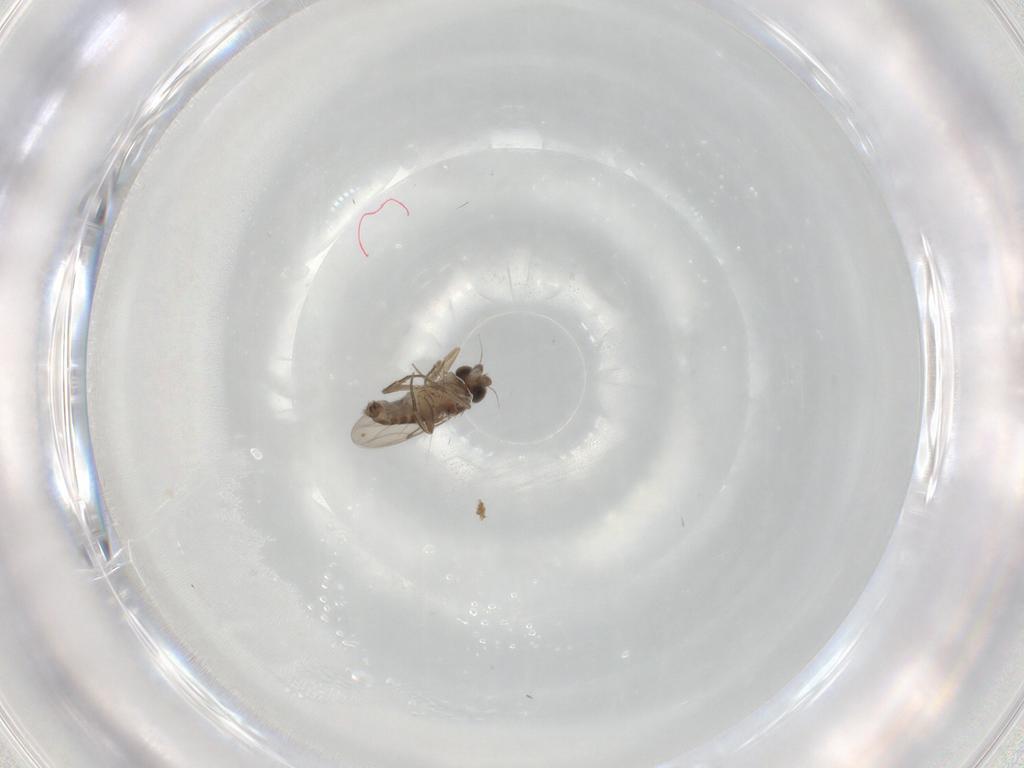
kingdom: Animalia
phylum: Arthropoda
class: Insecta
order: Diptera
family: Phoridae
